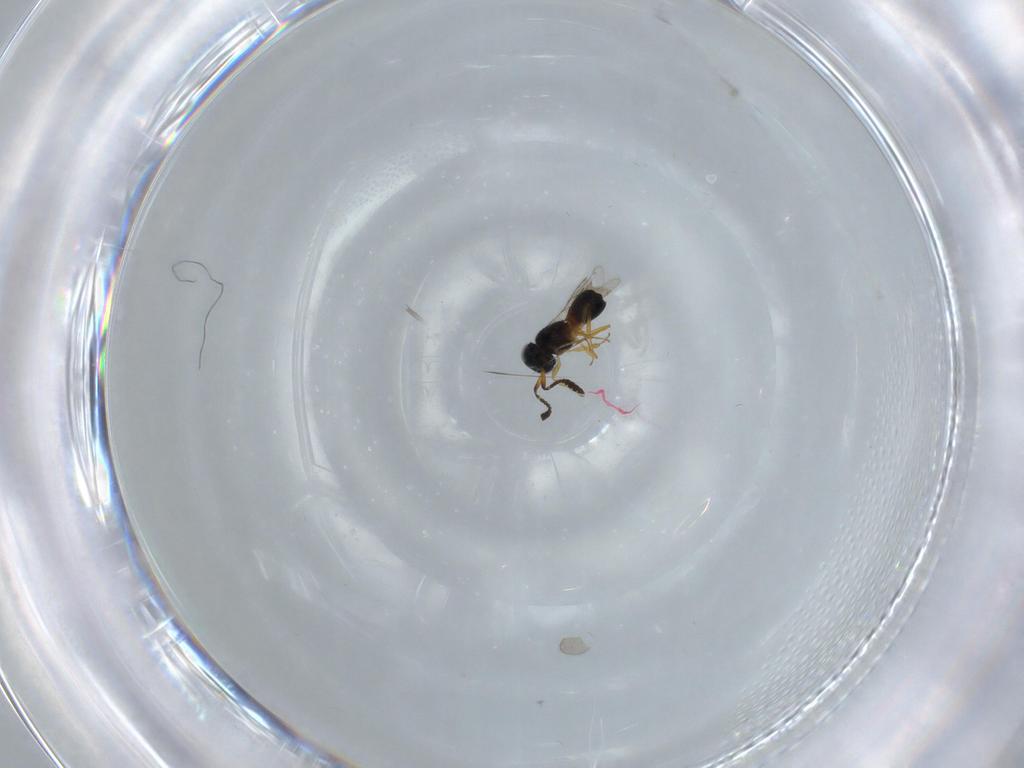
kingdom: Animalia
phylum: Arthropoda
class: Insecta
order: Hymenoptera
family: Scelionidae
